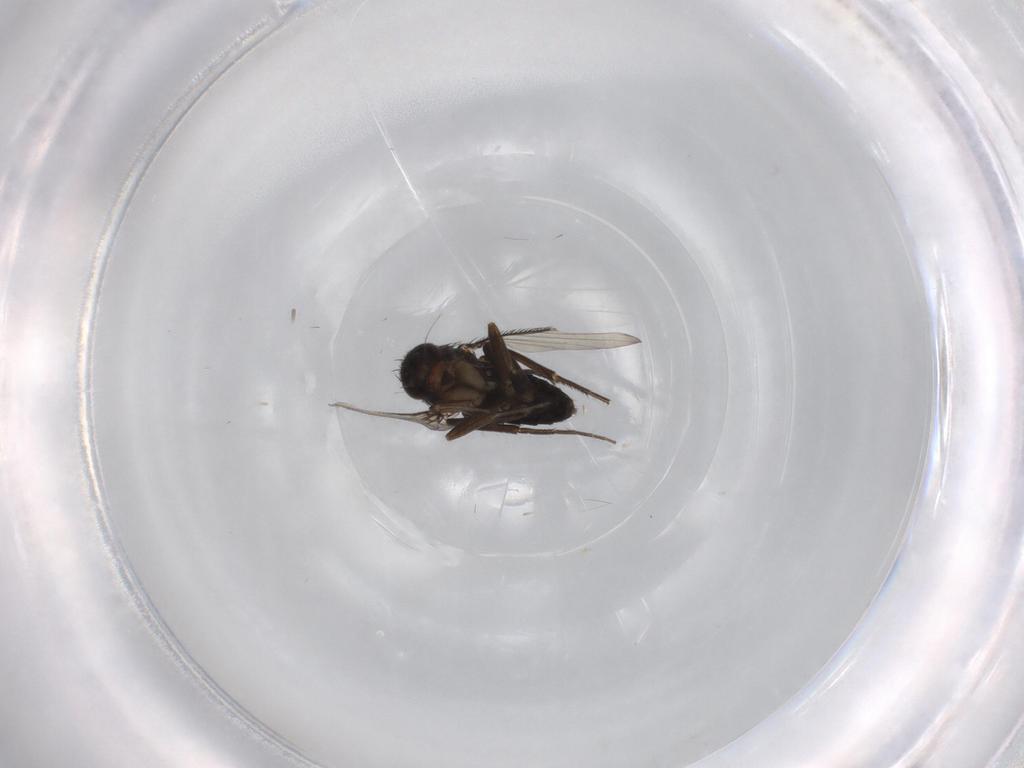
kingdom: Animalia
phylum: Arthropoda
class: Insecta
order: Diptera
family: Phoridae
